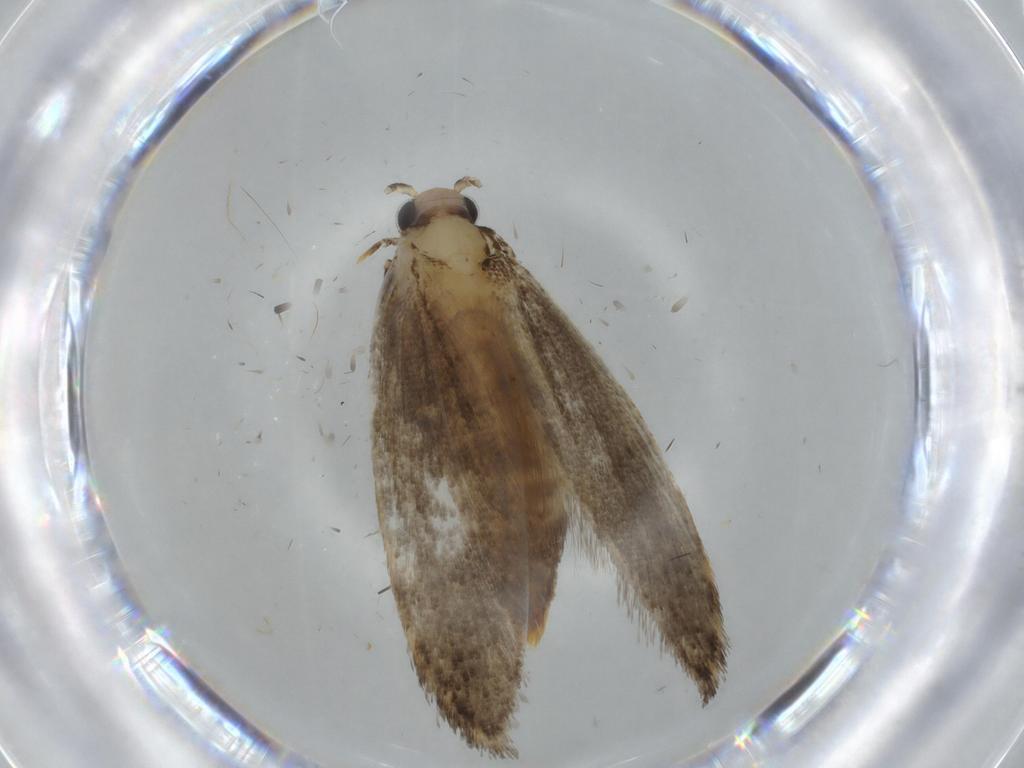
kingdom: Animalia
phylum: Arthropoda
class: Insecta
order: Lepidoptera
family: Tineidae
